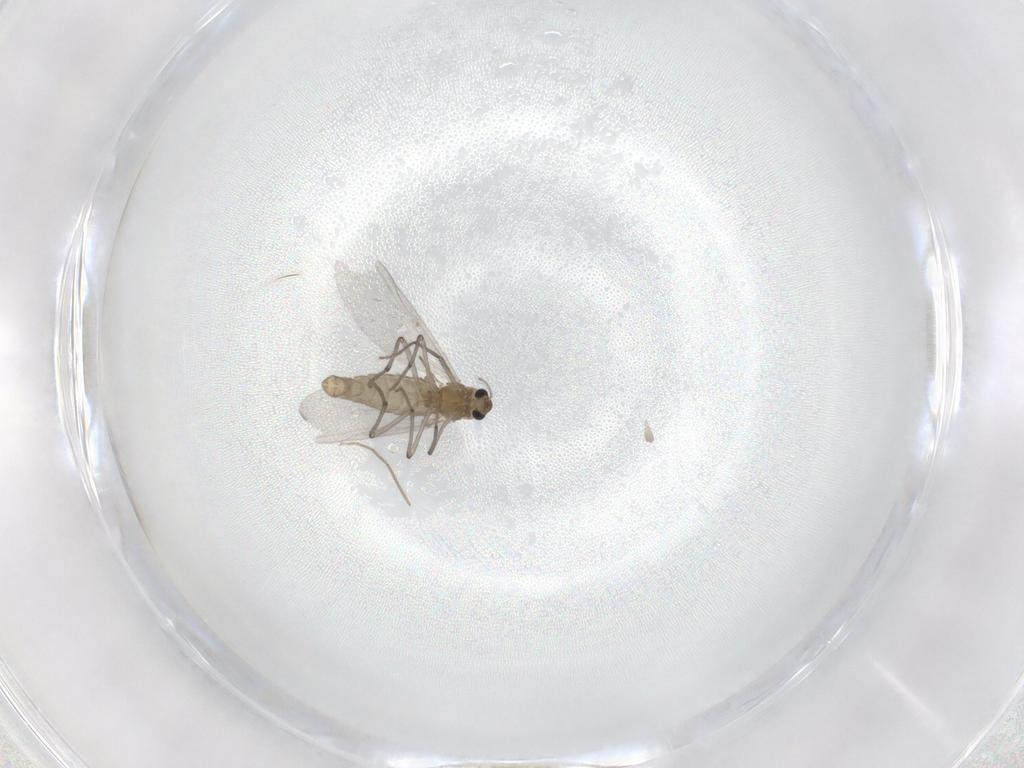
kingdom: Animalia
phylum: Arthropoda
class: Insecta
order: Diptera
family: Chironomidae
